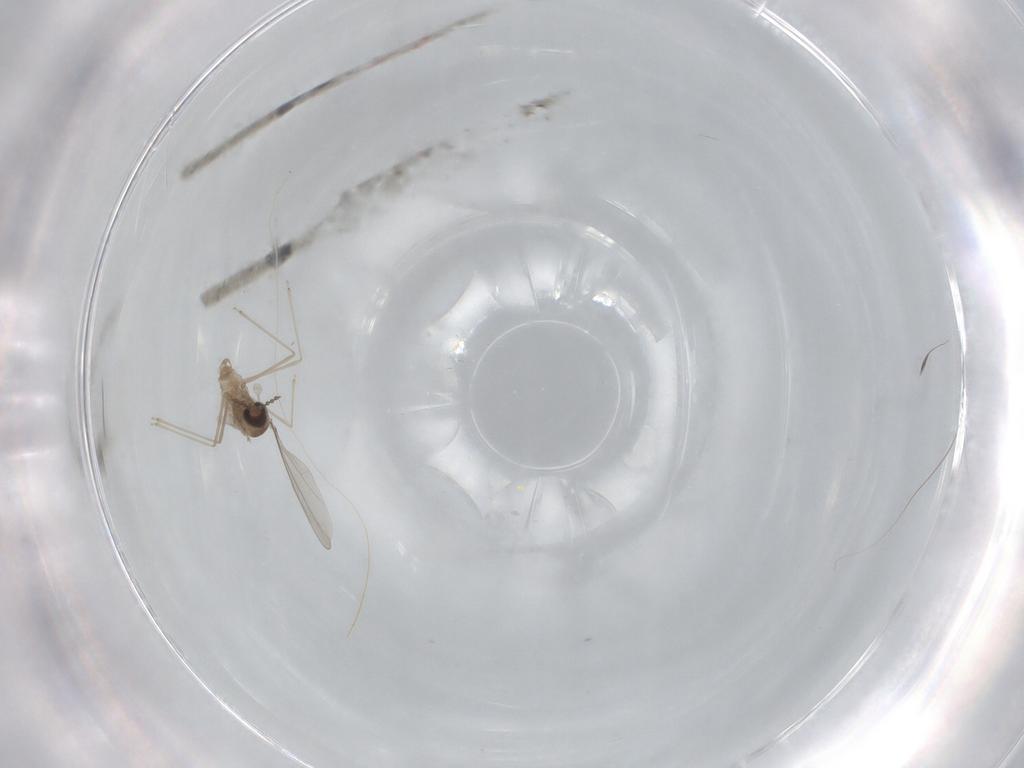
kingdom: Animalia
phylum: Arthropoda
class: Insecta
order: Diptera
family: Cecidomyiidae
